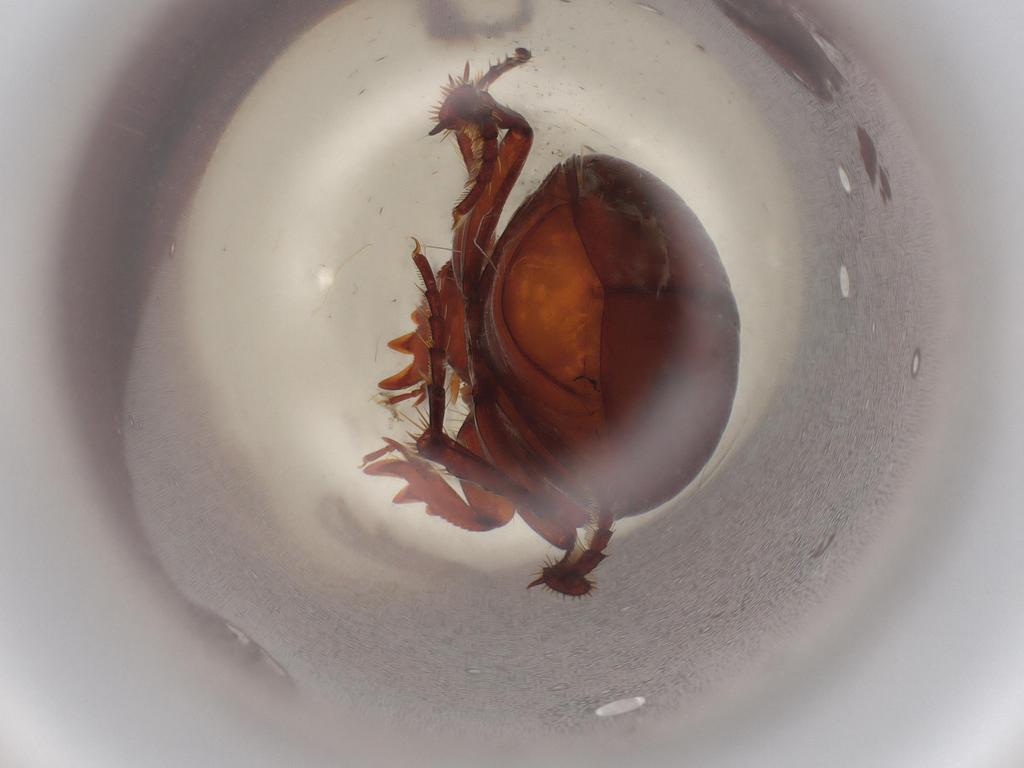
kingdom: Animalia
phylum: Arthropoda
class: Insecta
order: Coleoptera
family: Scarabaeidae
